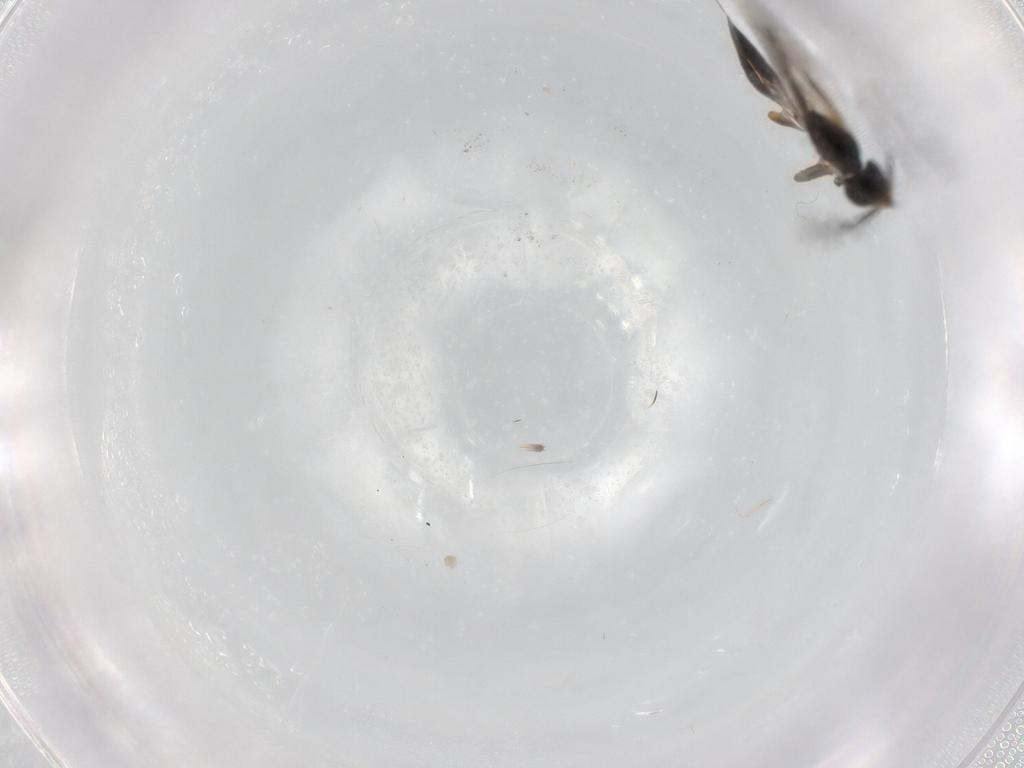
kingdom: Animalia
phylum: Arthropoda
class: Insecta
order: Hymenoptera
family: Ichneumonidae
